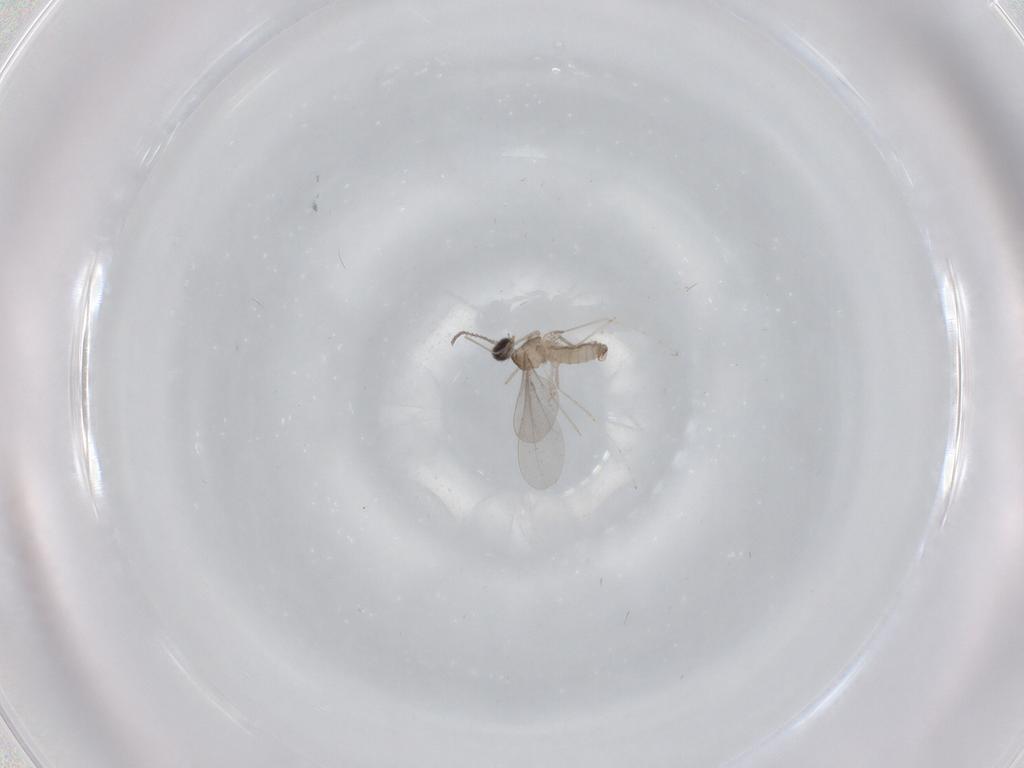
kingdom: Animalia
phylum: Arthropoda
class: Insecta
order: Diptera
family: Cecidomyiidae
